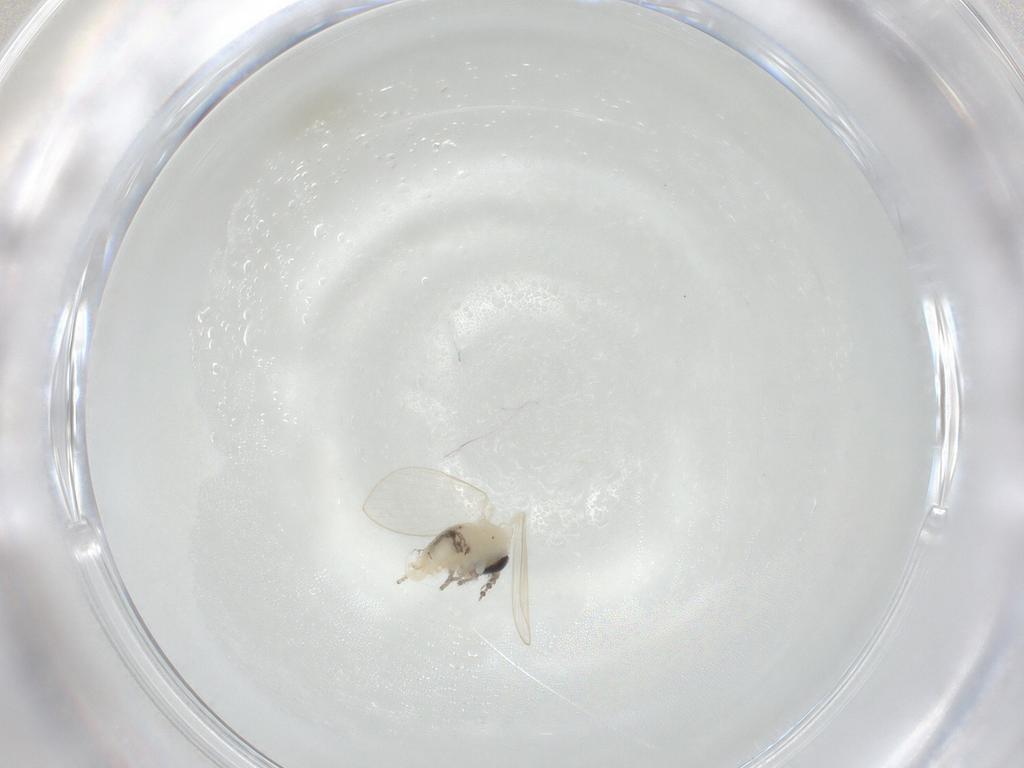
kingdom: Animalia
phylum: Arthropoda
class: Insecta
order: Diptera
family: Psychodidae
